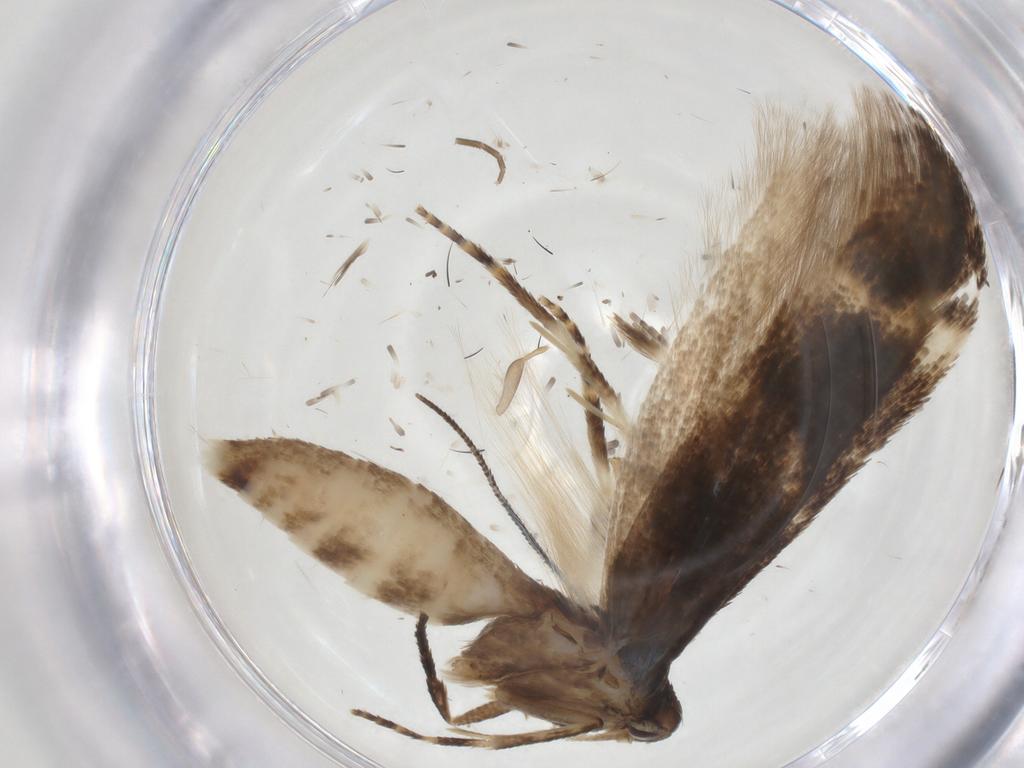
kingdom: Animalia
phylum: Arthropoda
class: Insecta
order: Lepidoptera
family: Momphidae
